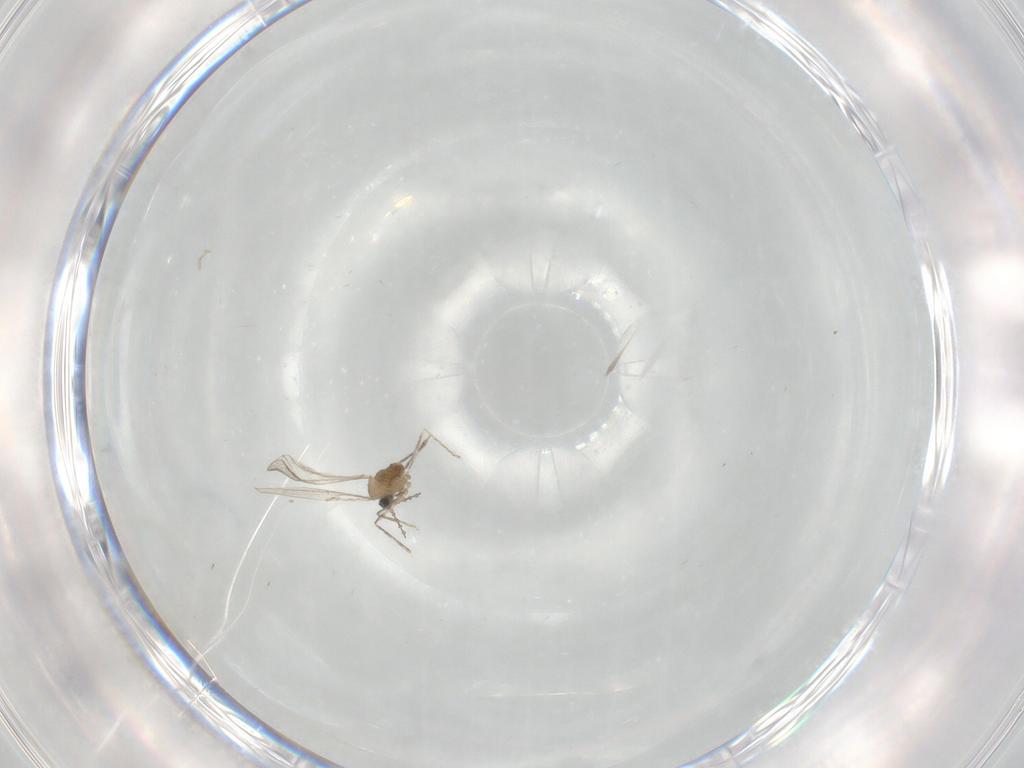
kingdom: Animalia
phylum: Arthropoda
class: Insecta
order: Diptera
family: Cecidomyiidae
